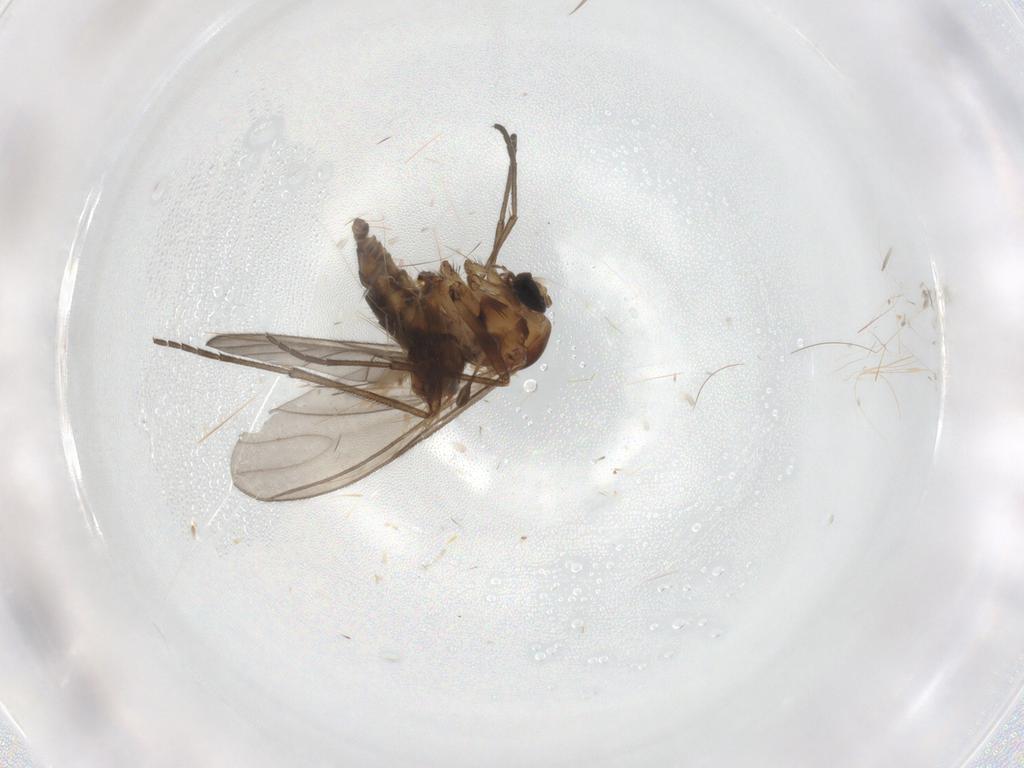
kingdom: Animalia
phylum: Arthropoda
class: Insecta
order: Diptera
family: Sciaridae
